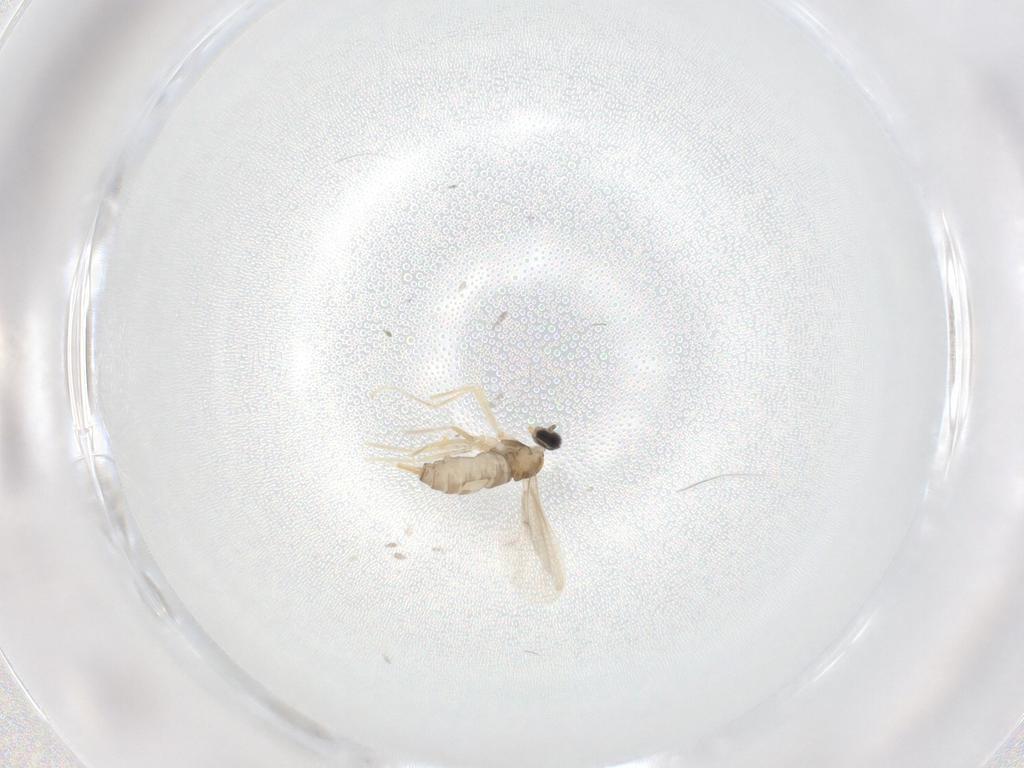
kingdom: Animalia
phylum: Arthropoda
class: Insecta
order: Diptera
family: Cecidomyiidae
